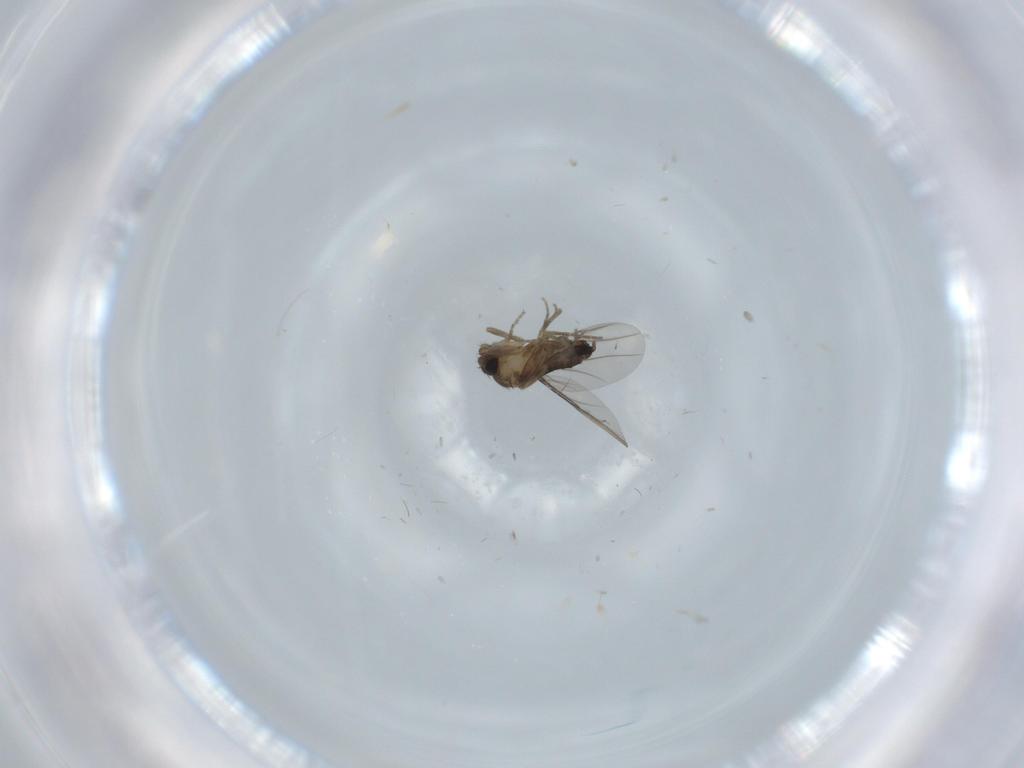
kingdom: Animalia
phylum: Arthropoda
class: Insecta
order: Diptera
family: Phoridae
